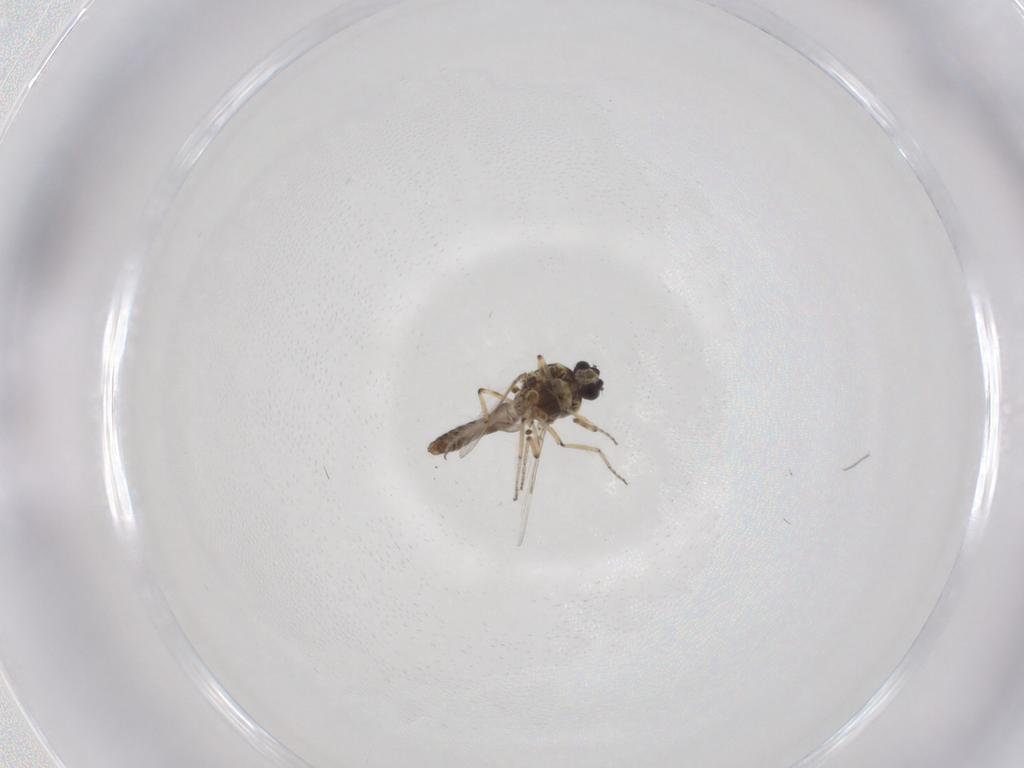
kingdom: Animalia
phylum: Arthropoda
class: Insecta
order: Diptera
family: Ceratopogonidae
